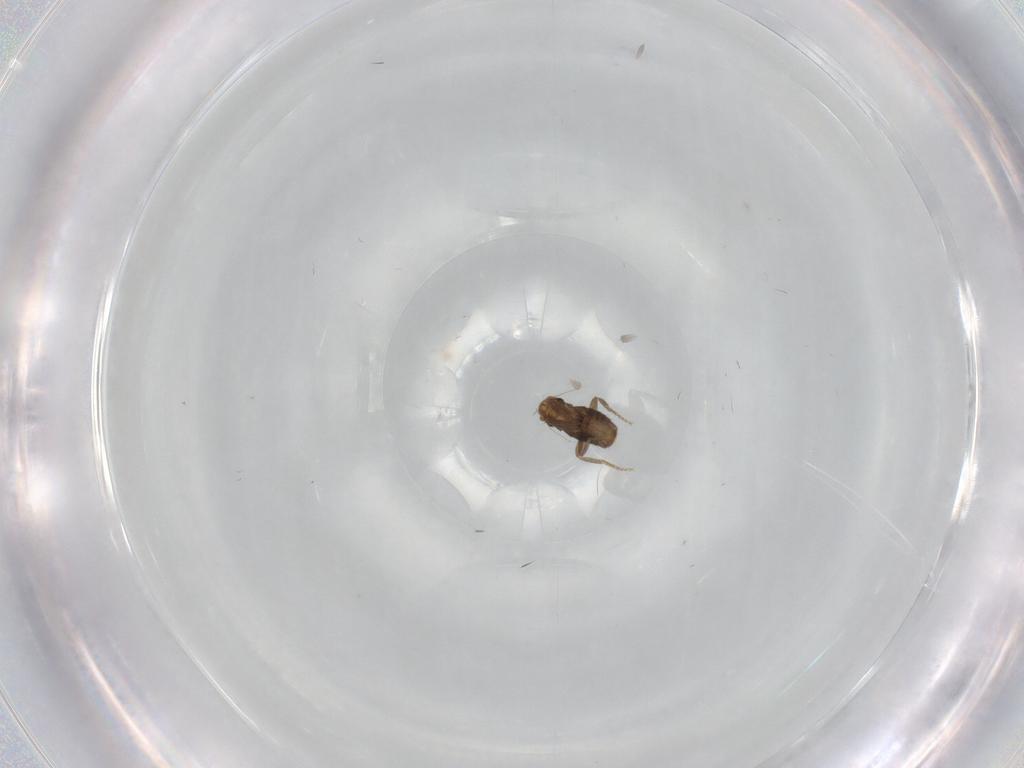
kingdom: Animalia
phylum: Arthropoda
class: Insecta
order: Diptera
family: Phoridae
